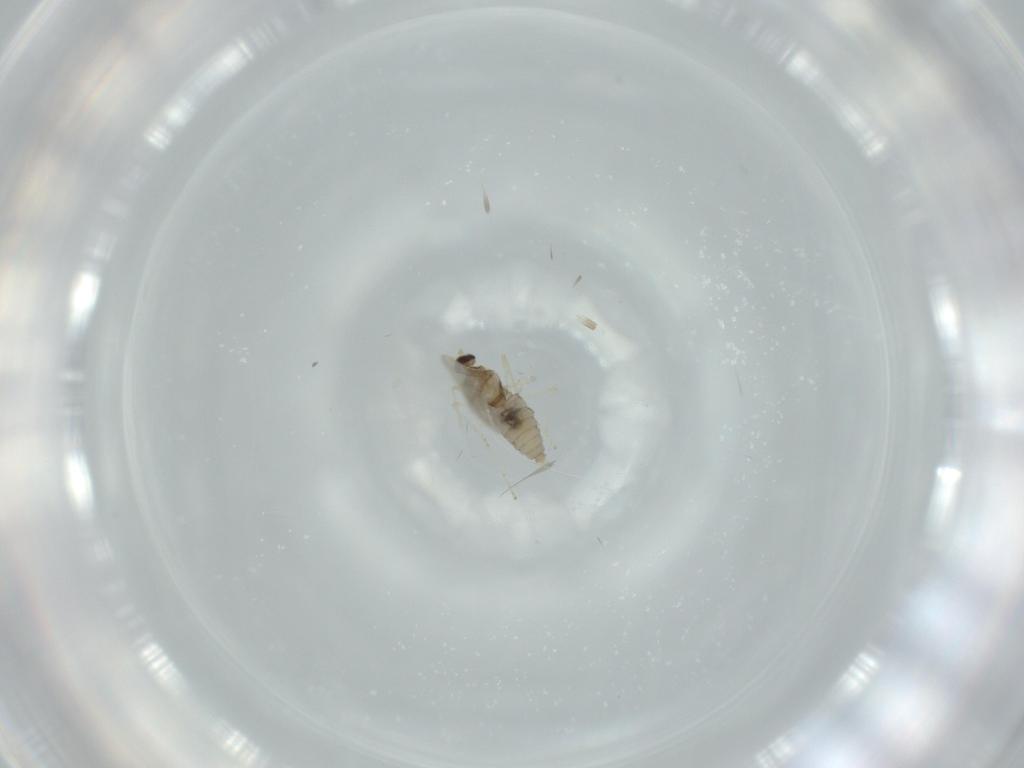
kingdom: Animalia
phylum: Arthropoda
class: Insecta
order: Diptera
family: Cecidomyiidae
